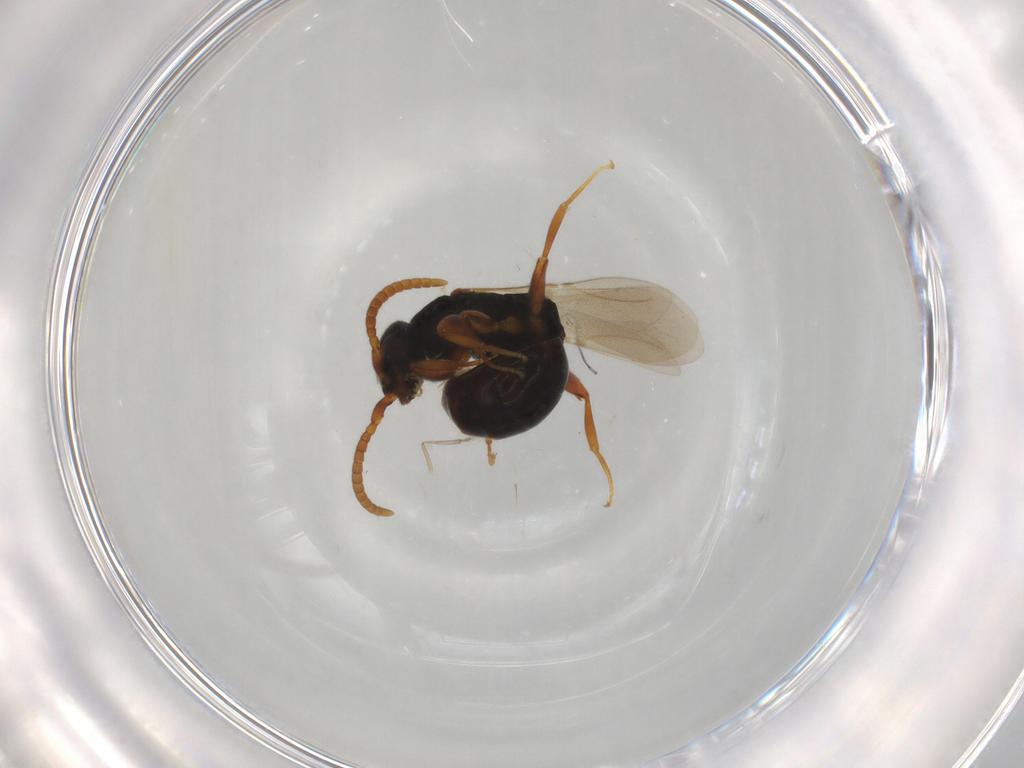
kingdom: Animalia
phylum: Arthropoda
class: Insecta
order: Hymenoptera
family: Bethylidae
